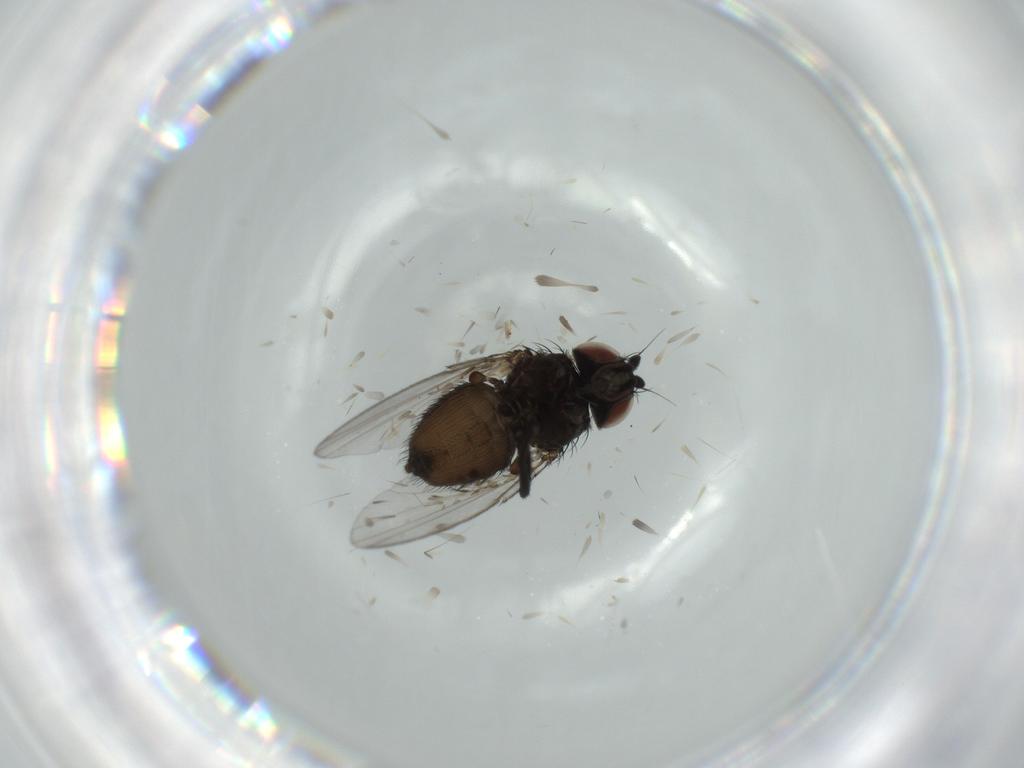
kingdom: Animalia
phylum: Arthropoda
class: Insecta
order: Diptera
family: Milichiidae
